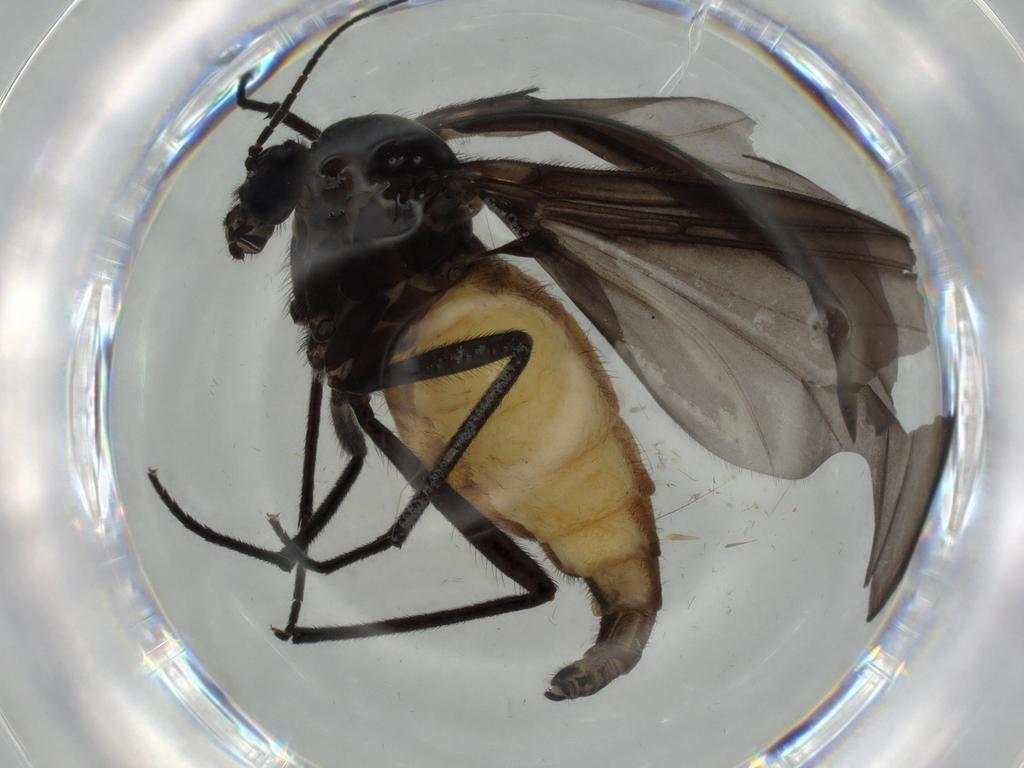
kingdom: Animalia
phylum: Arthropoda
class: Insecta
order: Diptera
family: Cecidomyiidae
